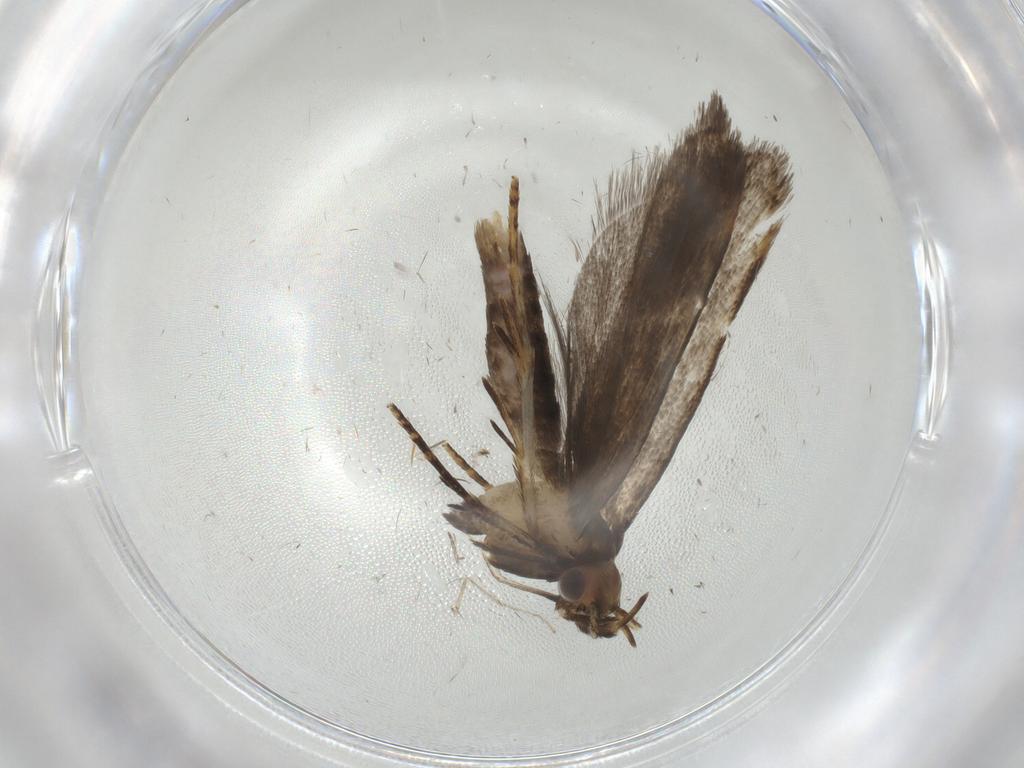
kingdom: Animalia
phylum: Arthropoda
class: Insecta
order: Lepidoptera
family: Gelechiidae
